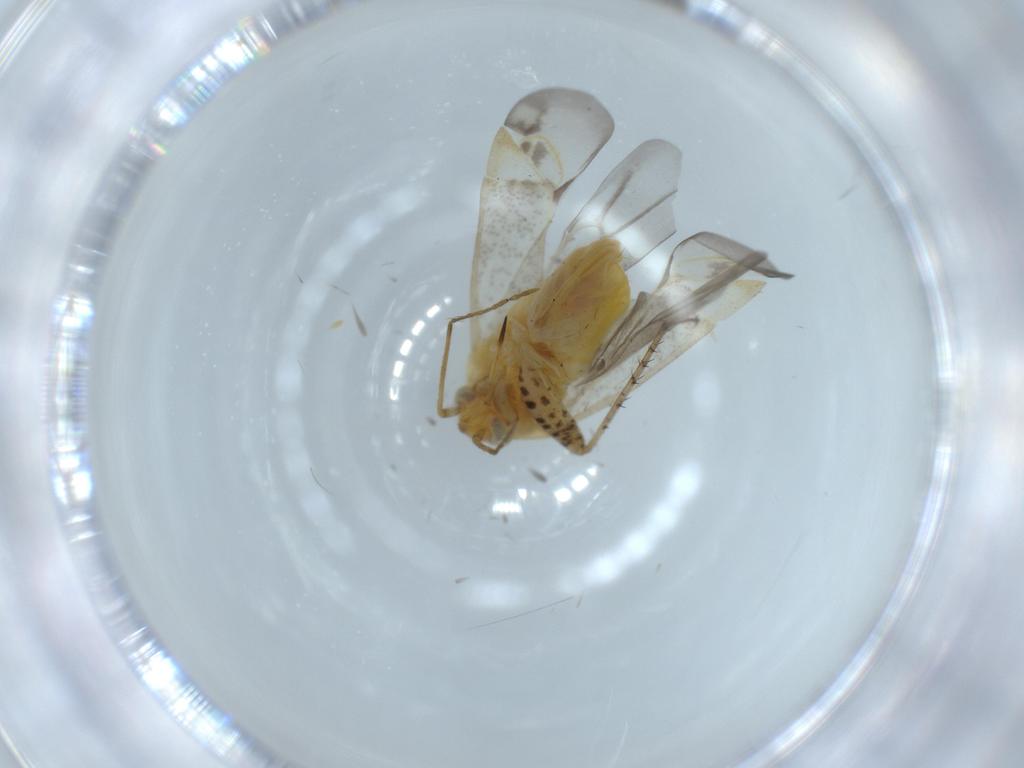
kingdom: Animalia
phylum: Arthropoda
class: Insecta
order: Hemiptera
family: Miridae
